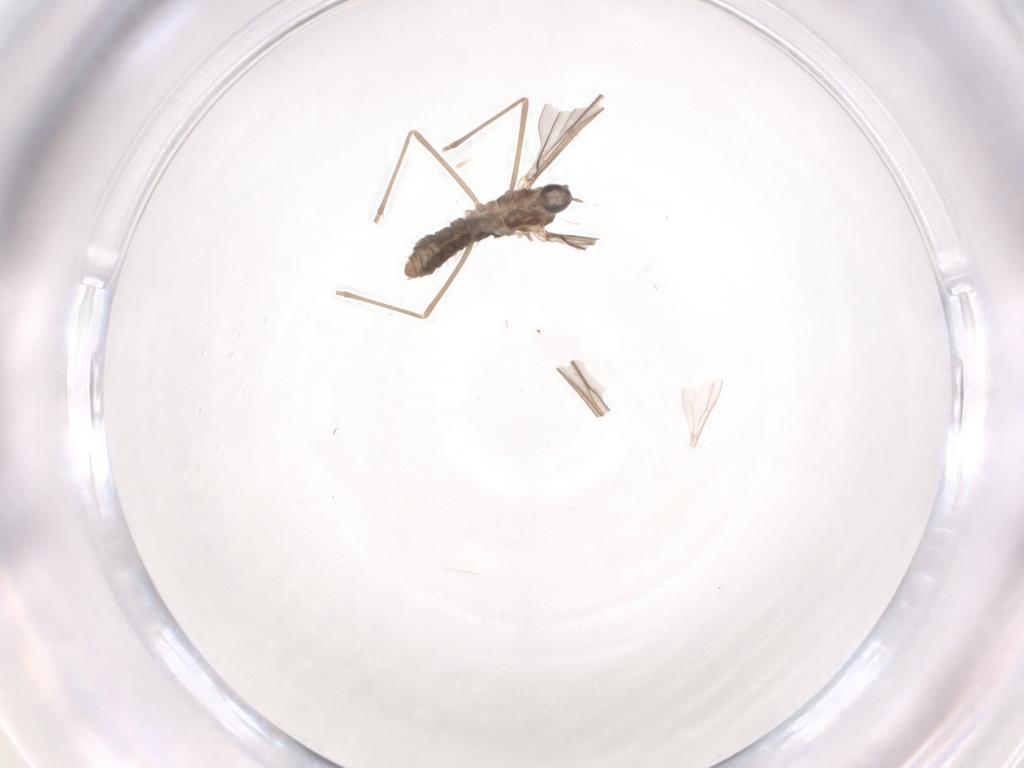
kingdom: Animalia
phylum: Arthropoda
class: Insecta
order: Diptera
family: Cecidomyiidae
